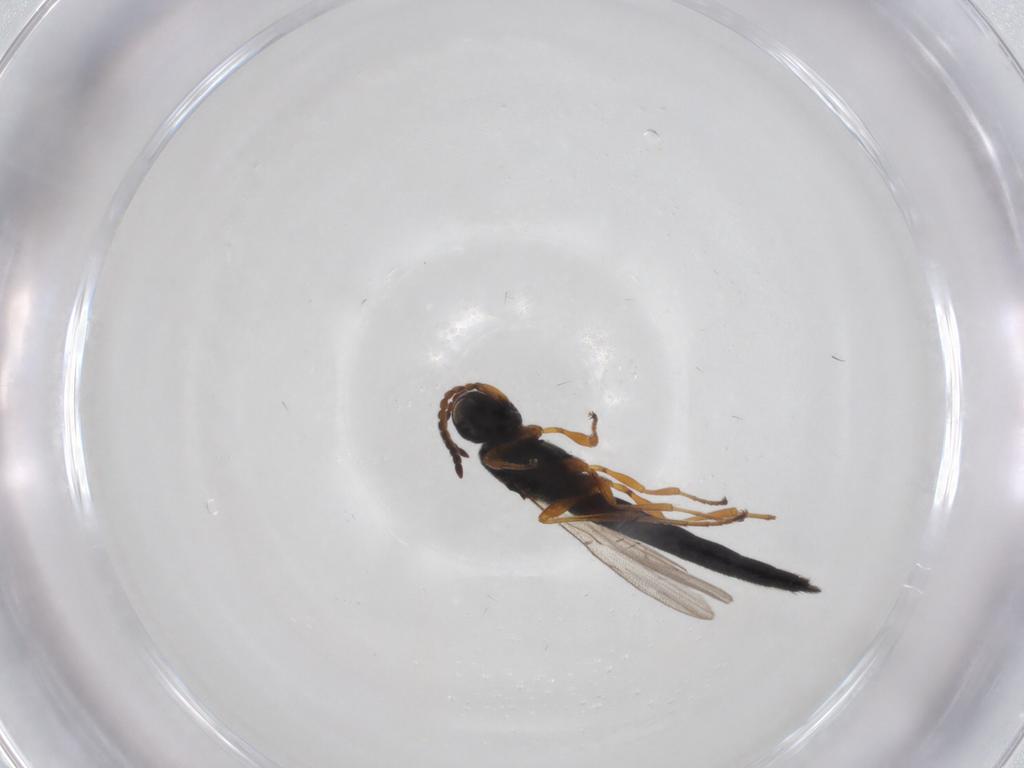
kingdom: Animalia
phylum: Arthropoda
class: Insecta
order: Hymenoptera
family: Scelionidae
